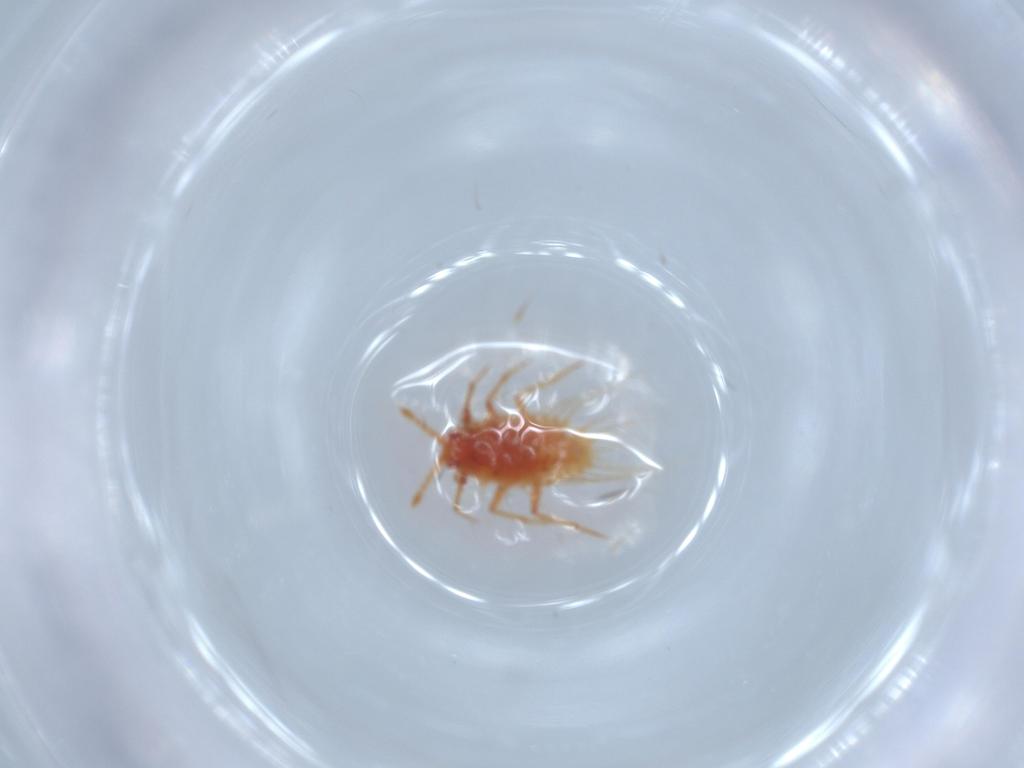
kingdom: Animalia
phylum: Arthropoda
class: Insecta
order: Hemiptera
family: Monophlebidae
